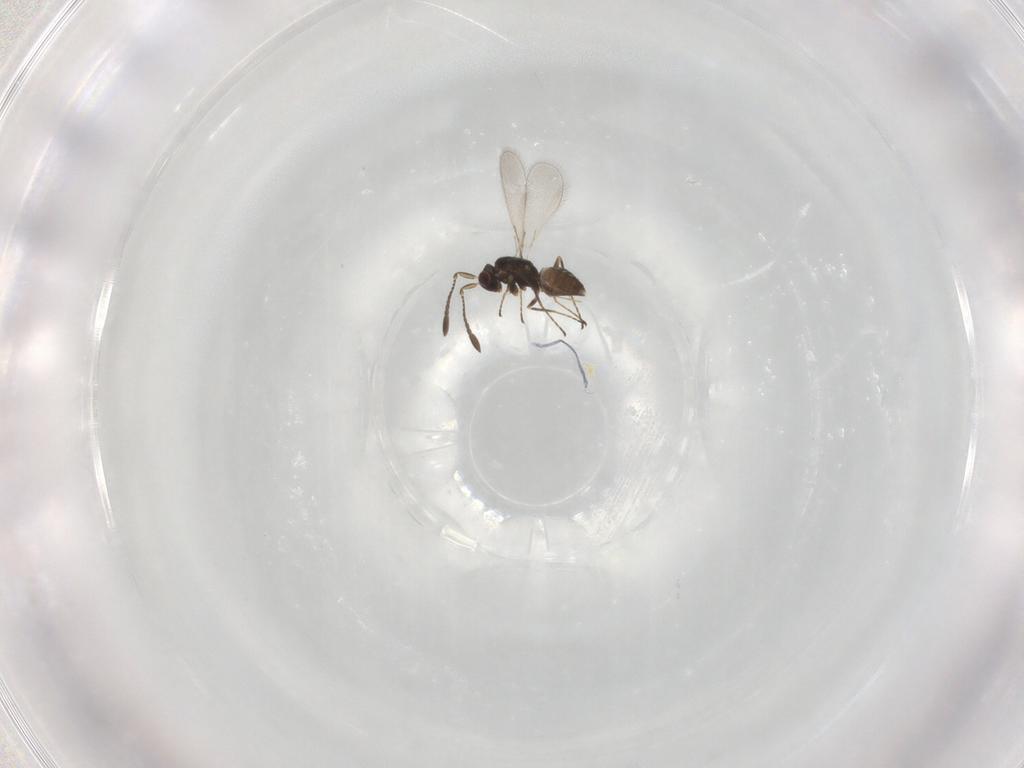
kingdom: Animalia
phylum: Arthropoda
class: Insecta
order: Hymenoptera
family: Mymaridae
